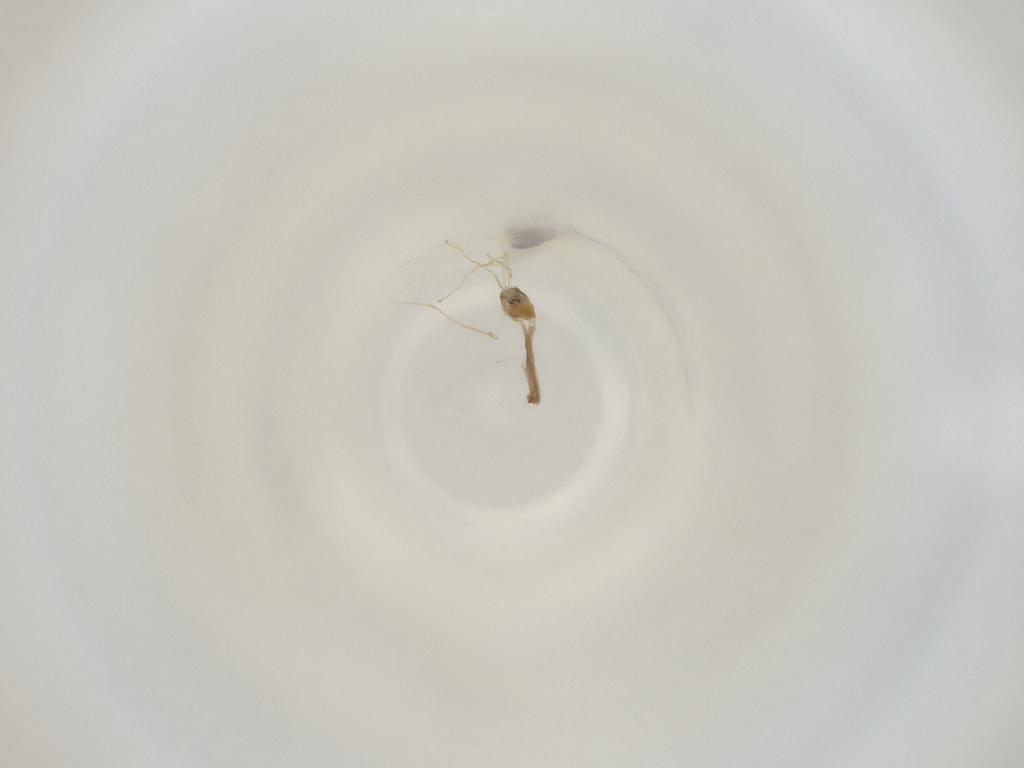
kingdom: Animalia
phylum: Arthropoda
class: Insecta
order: Diptera
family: Cecidomyiidae
